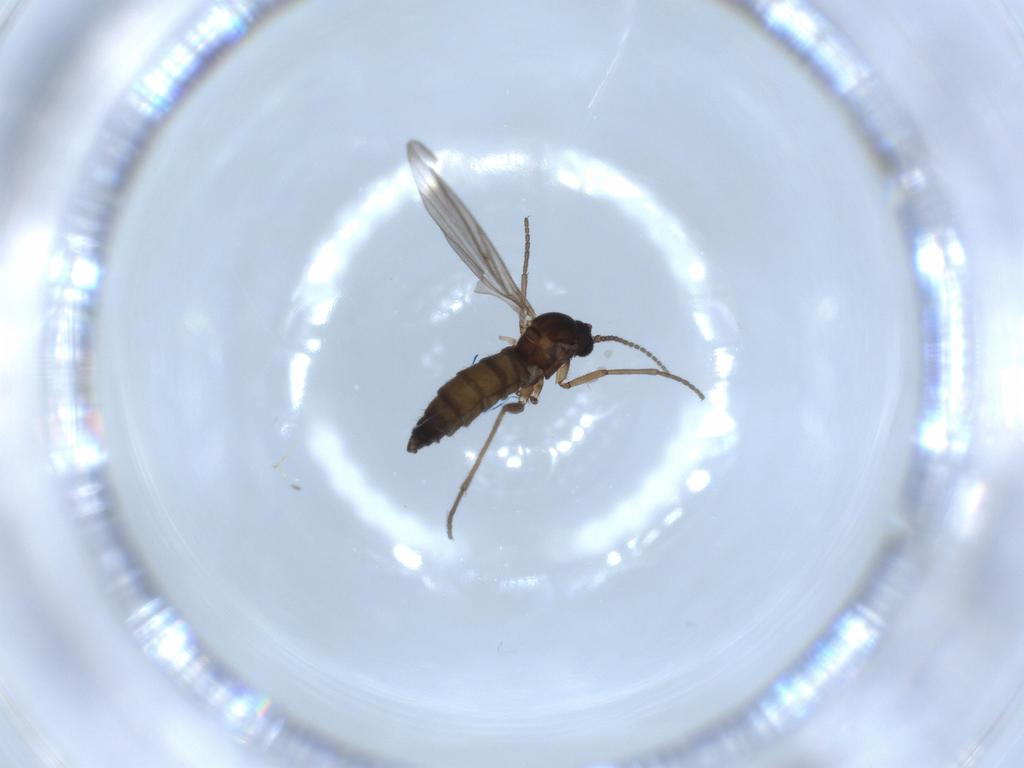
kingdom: Animalia
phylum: Arthropoda
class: Insecta
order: Diptera
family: Sciaridae
